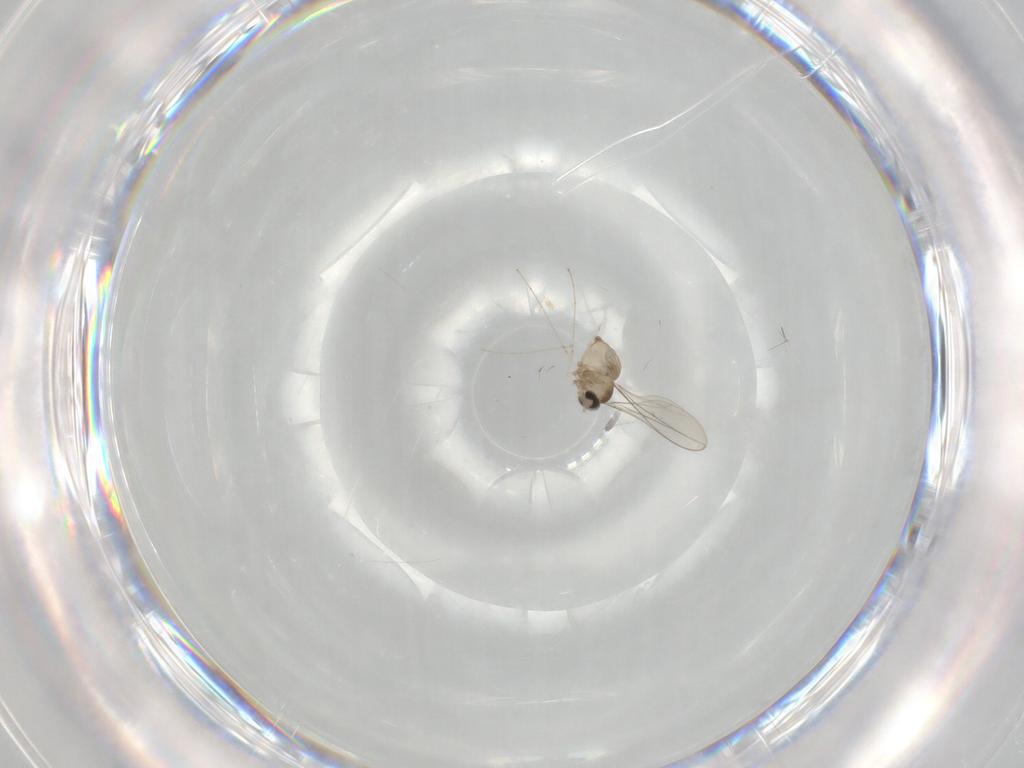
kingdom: Animalia
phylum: Arthropoda
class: Insecta
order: Diptera
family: Cecidomyiidae
